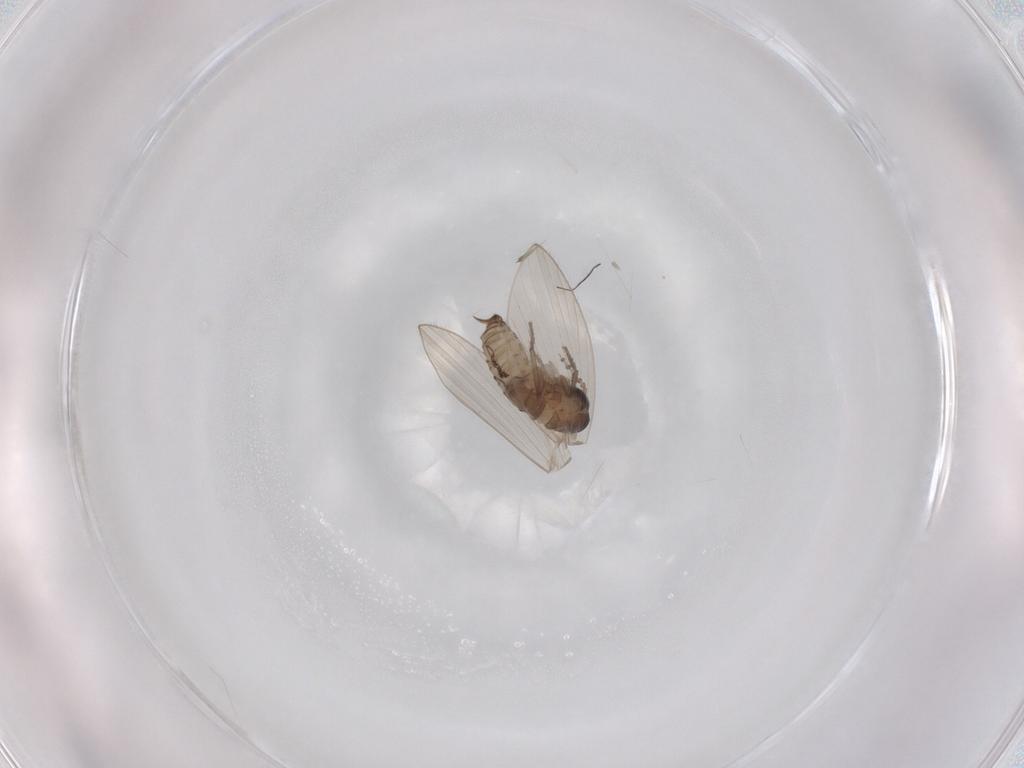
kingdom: Animalia
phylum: Arthropoda
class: Insecta
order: Diptera
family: Psychodidae
